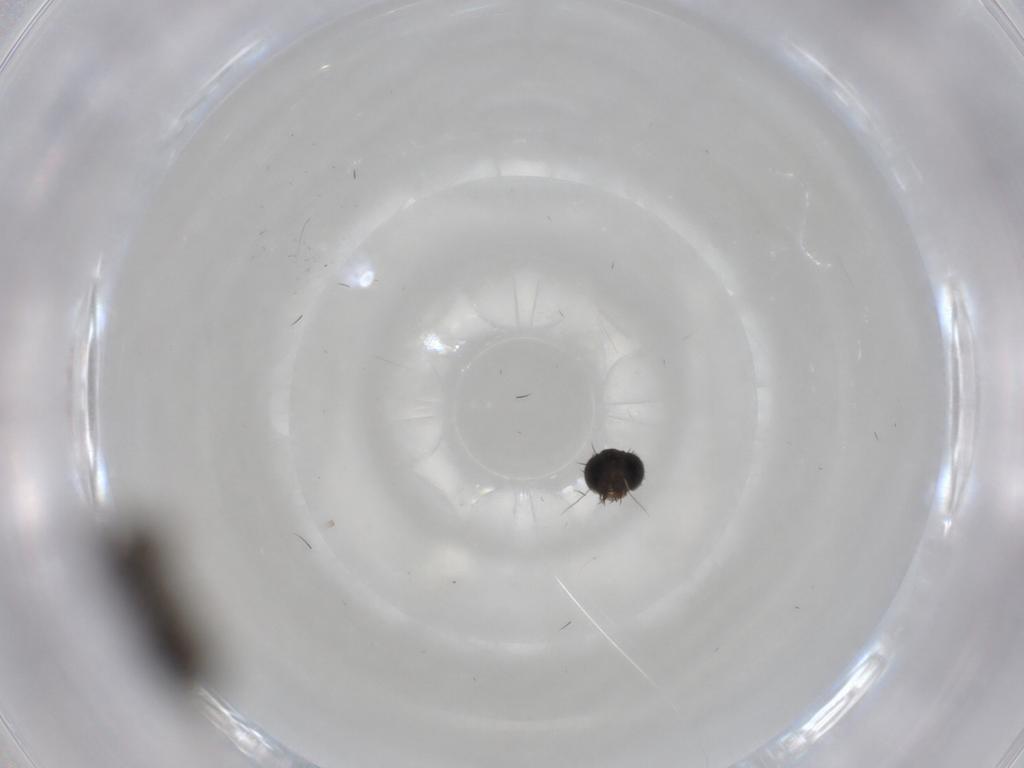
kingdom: Animalia
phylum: Arthropoda
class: Insecta
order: Diptera
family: Phoridae
